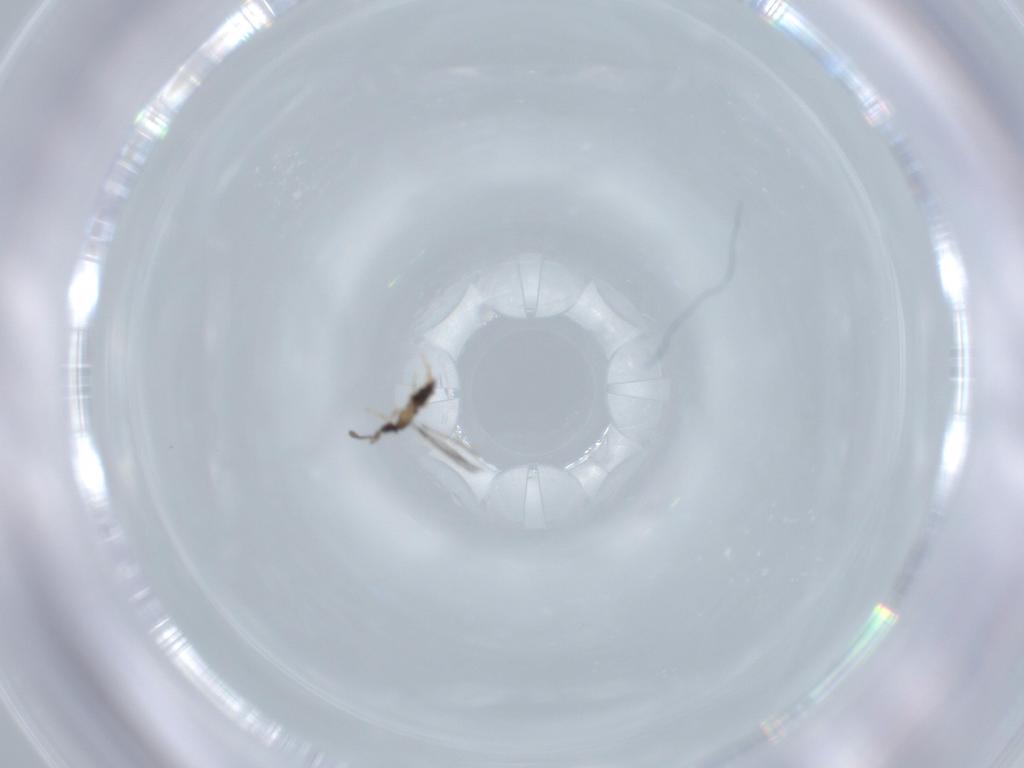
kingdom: Animalia
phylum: Arthropoda
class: Insecta
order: Hymenoptera
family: Mymaridae
